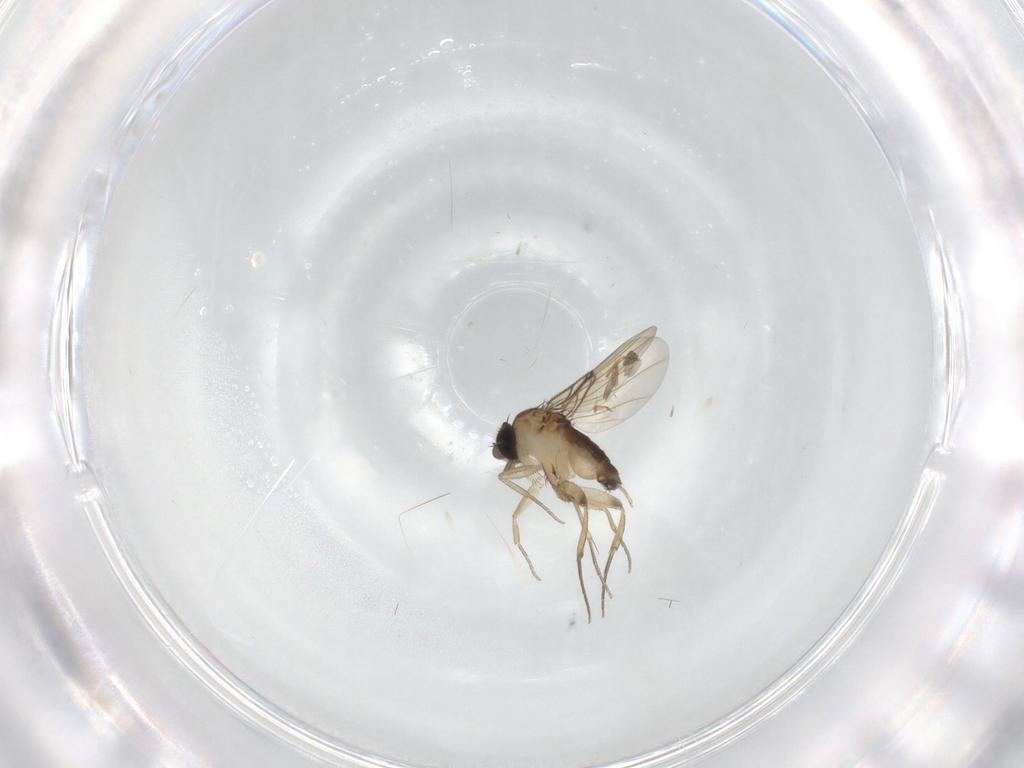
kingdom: Animalia
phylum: Arthropoda
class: Insecta
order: Diptera
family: Phoridae
